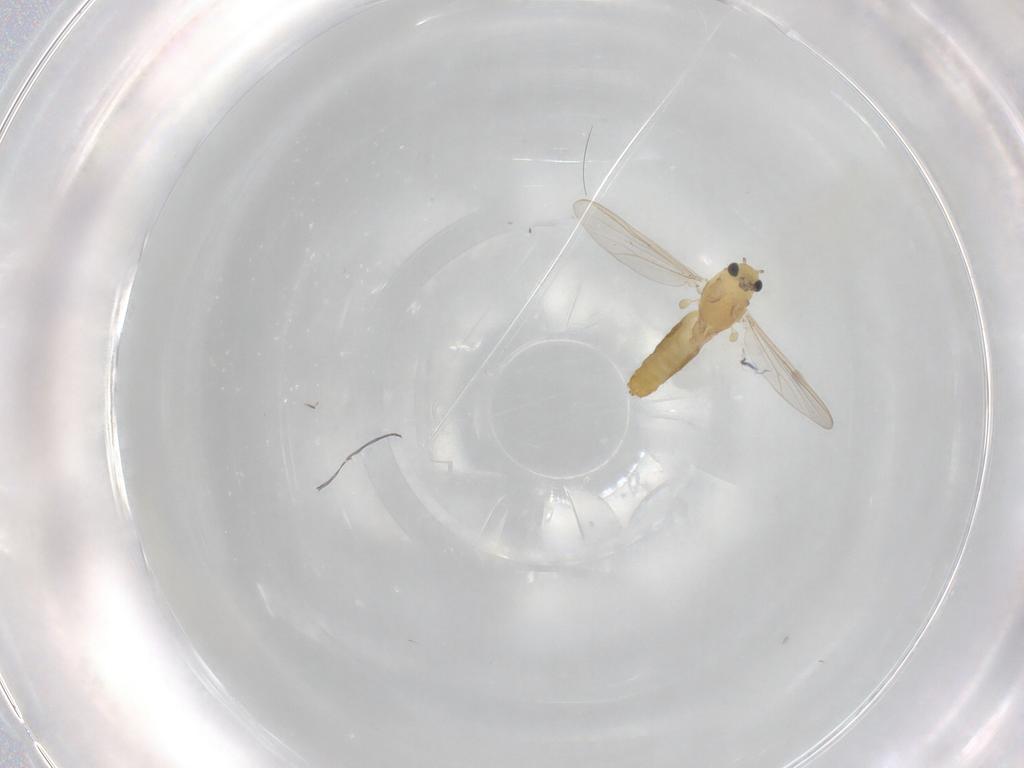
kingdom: Animalia
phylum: Arthropoda
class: Insecta
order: Diptera
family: Chironomidae
